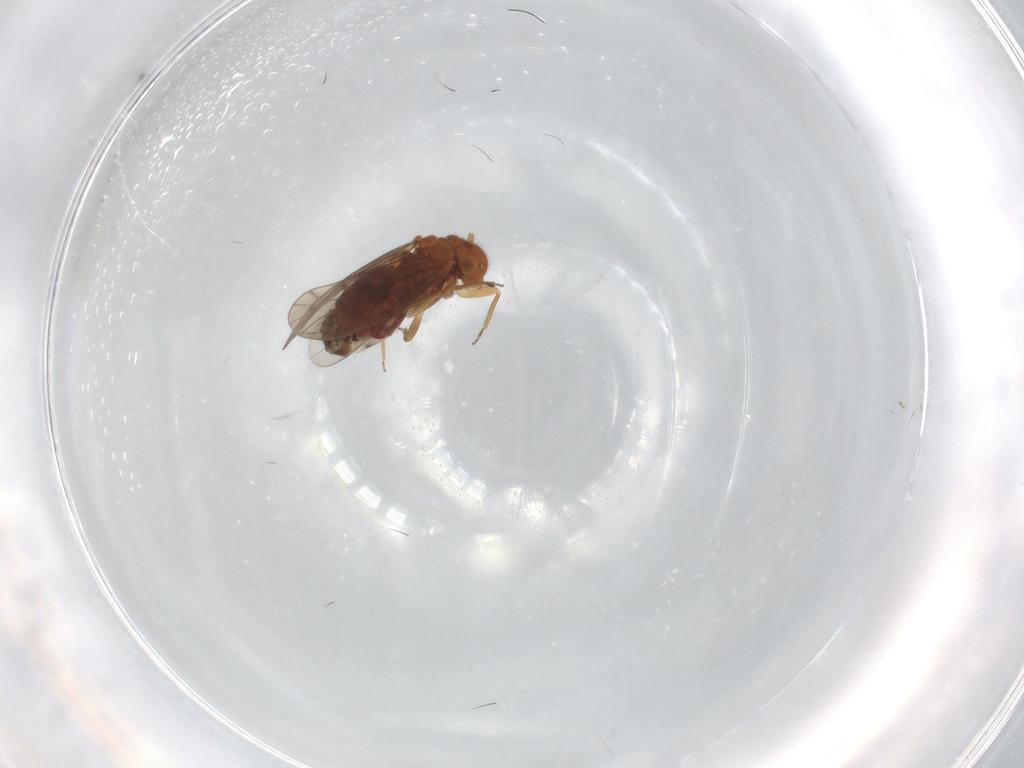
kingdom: Animalia
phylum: Arthropoda
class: Insecta
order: Psocodea
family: Ectopsocidae
